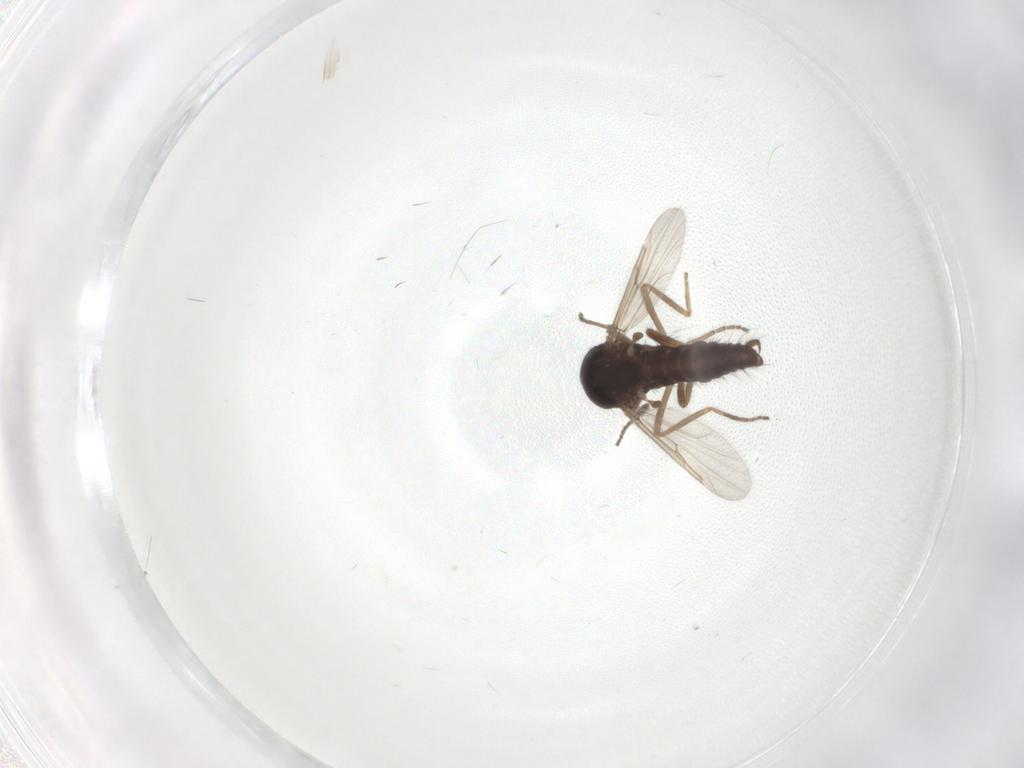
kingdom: Animalia
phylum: Arthropoda
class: Insecta
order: Diptera
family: Ceratopogonidae
